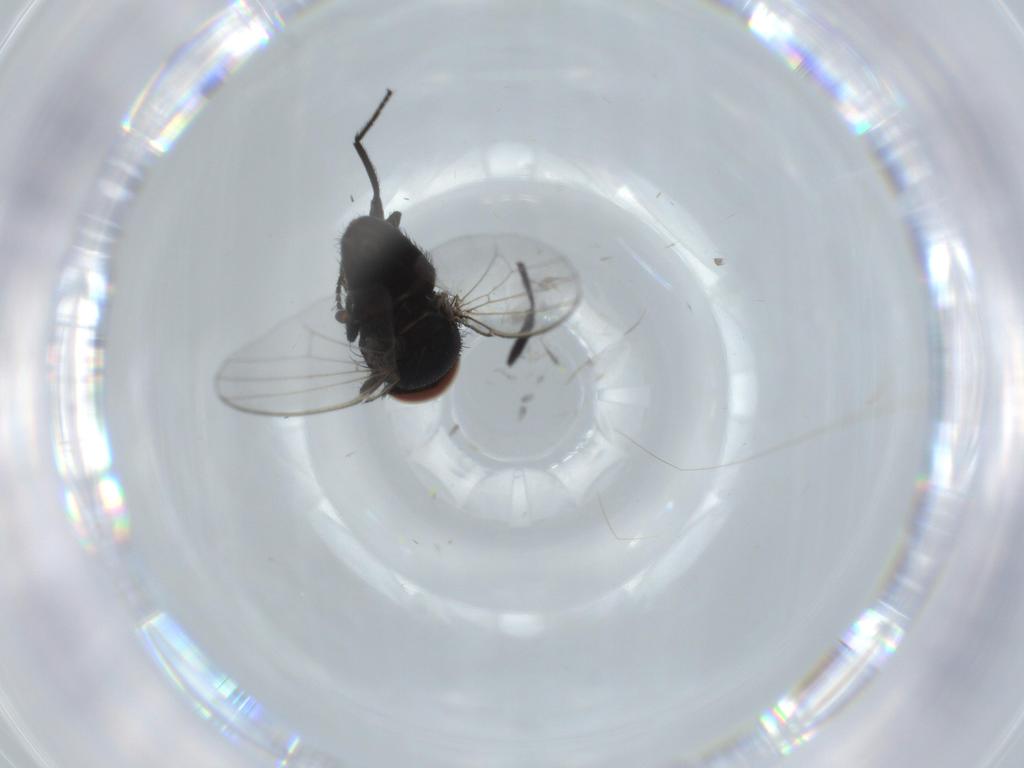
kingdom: Animalia
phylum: Arthropoda
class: Insecta
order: Diptera
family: Milichiidae
